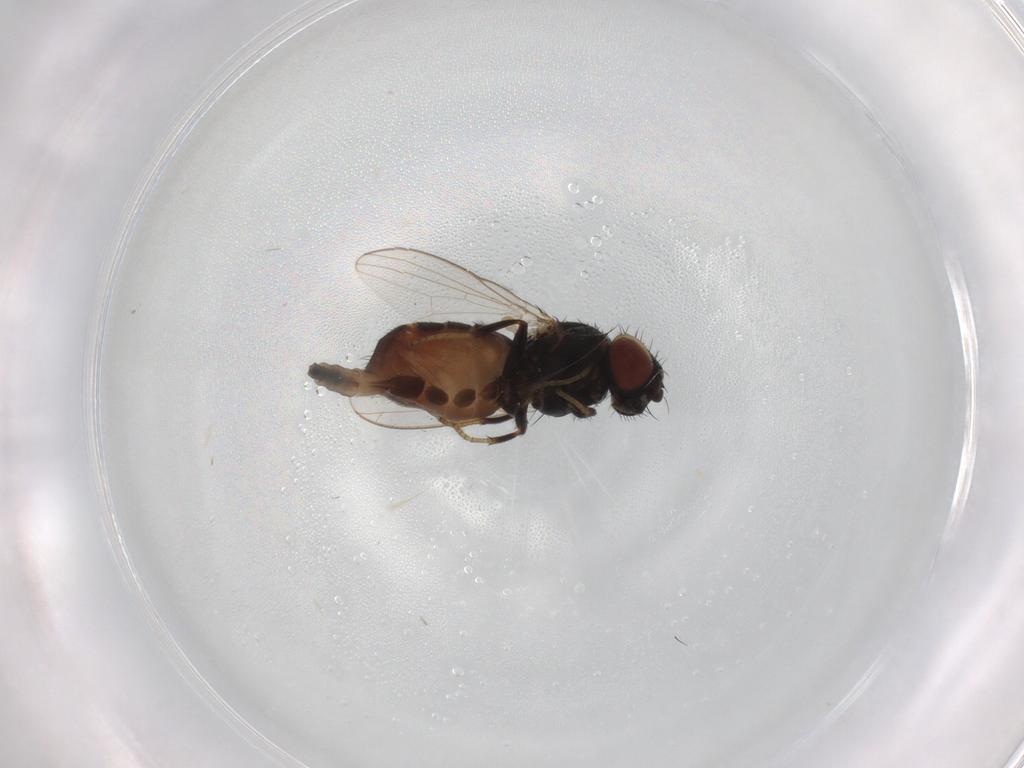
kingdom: Animalia
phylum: Arthropoda
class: Insecta
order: Diptera
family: Milichiidae
